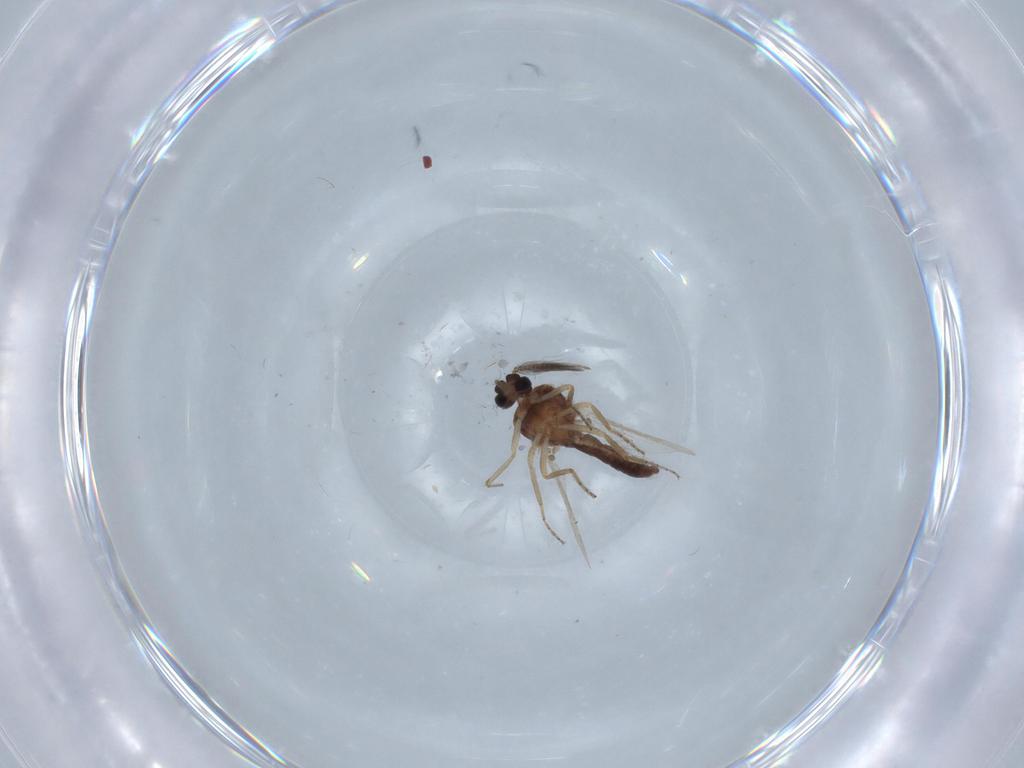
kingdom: Animalia
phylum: Arthropoda
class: Insecta
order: Diptera
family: Ceratopogonidae
